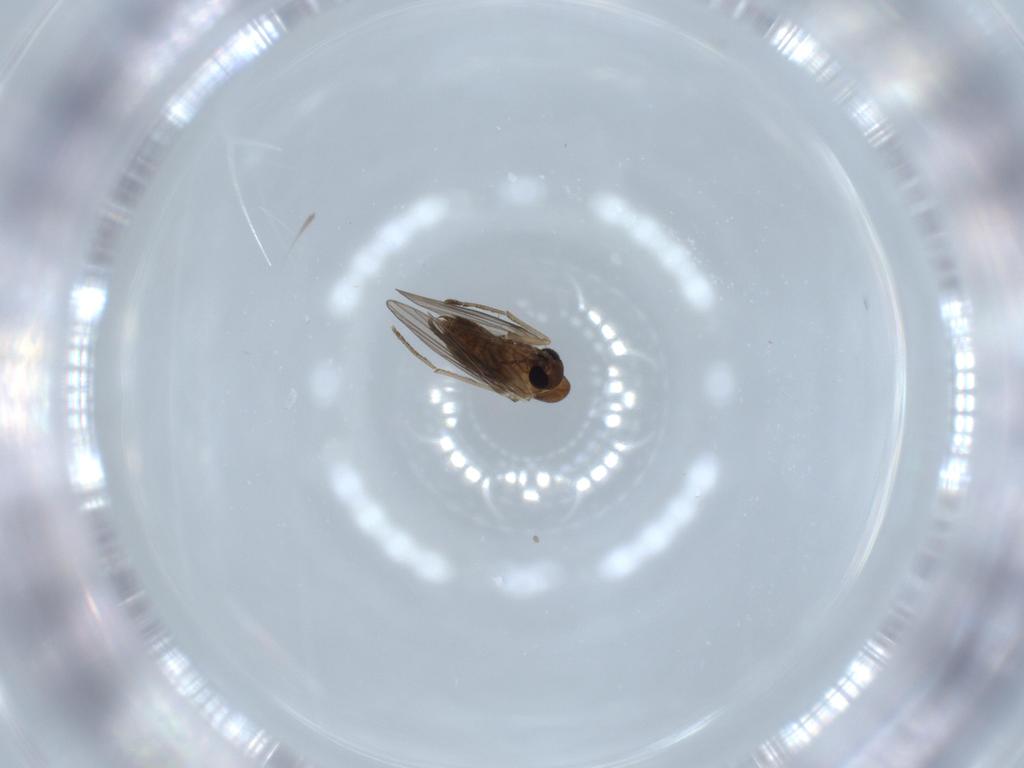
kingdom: Animalia
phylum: Arthropoda
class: Insecta
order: Diptera
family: Psychodidae
